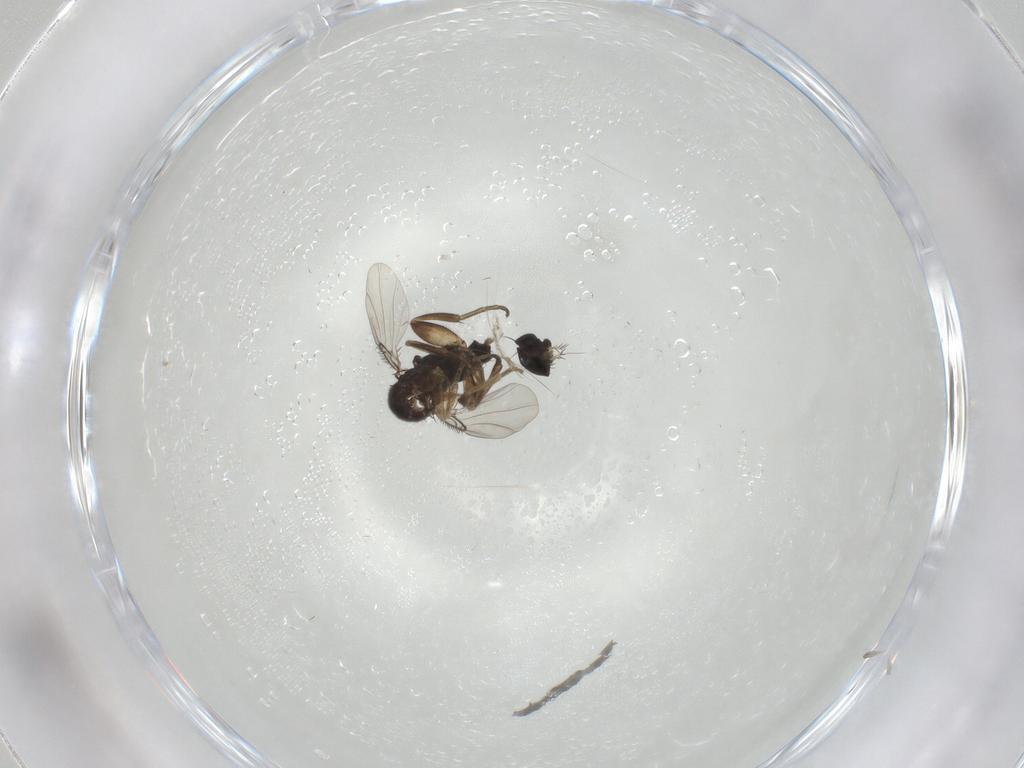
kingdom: Animalia
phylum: Arthropoda
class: Insecta
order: Diptera
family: Phoridae
